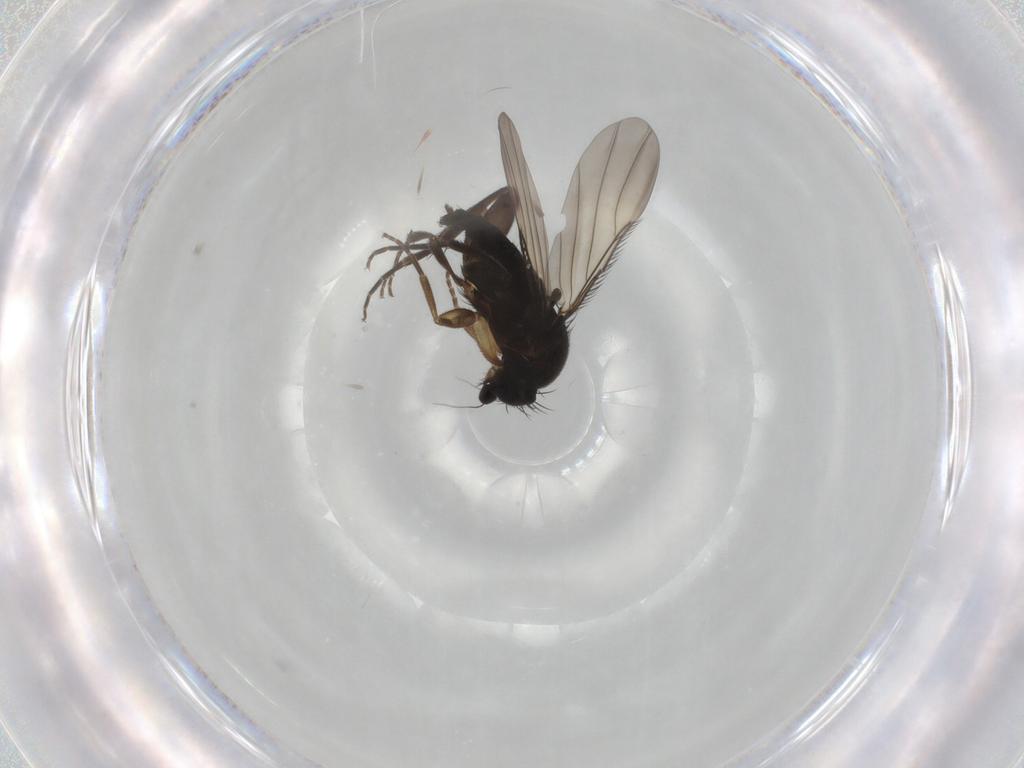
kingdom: Animalia
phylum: Arthropoda
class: Insecta
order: Diptera
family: Phoridae
